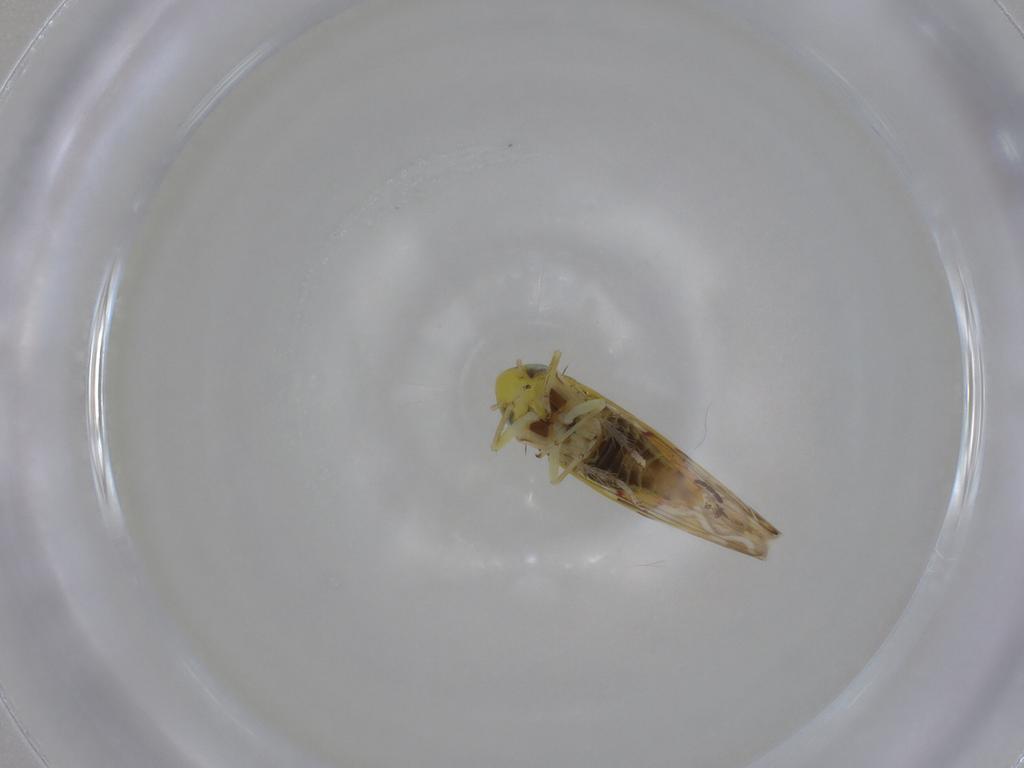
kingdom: Animalia
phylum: Arthropoda
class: Insecta
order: Hemiptera
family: Cicadellidae
